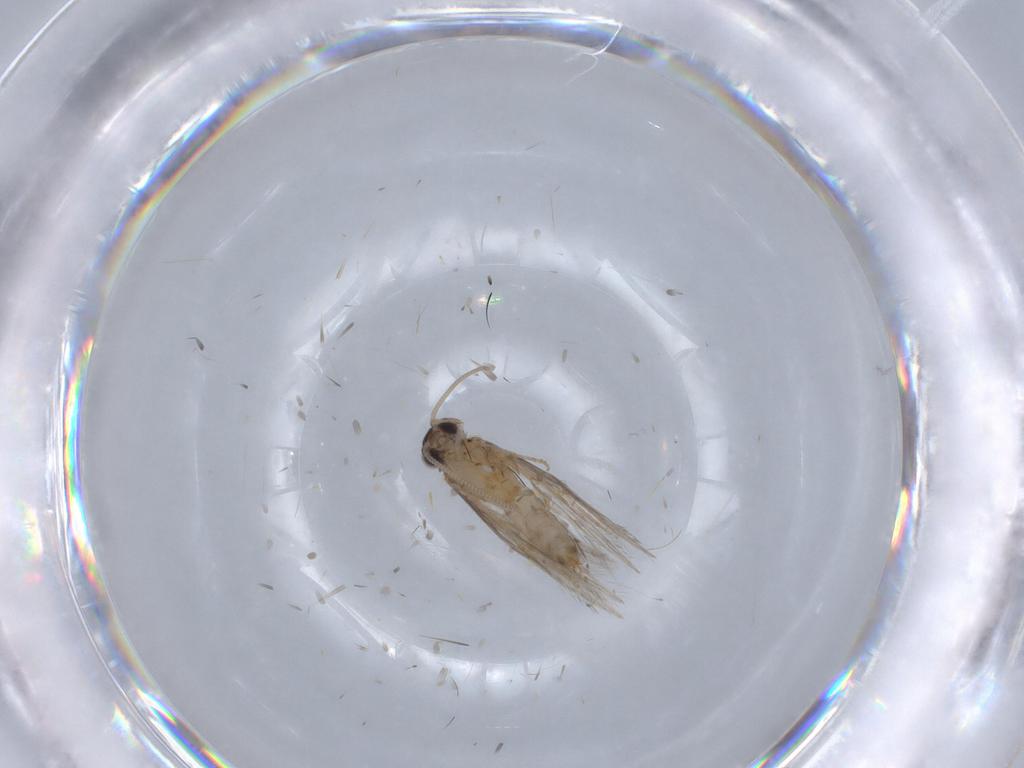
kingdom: Animalia
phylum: Arthropoda
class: Insecta
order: Trichoptera
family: Hydroptilidae
